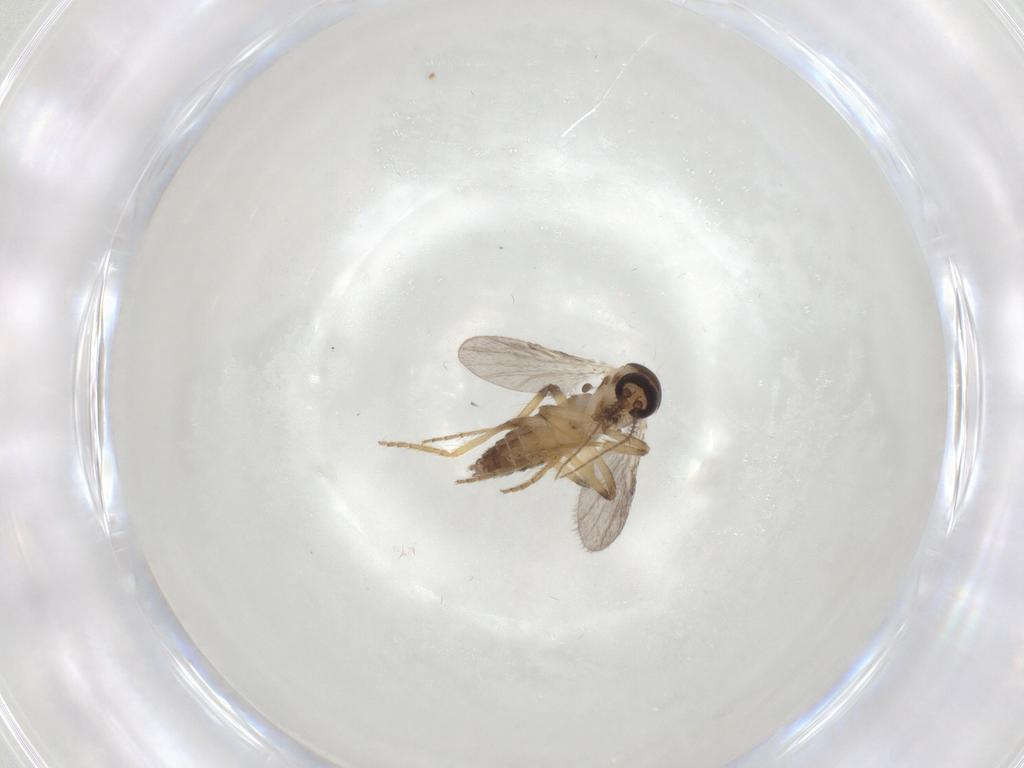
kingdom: Animalia
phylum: Arthropoda
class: Insecta
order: Diptera
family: Ceratopogonidae
